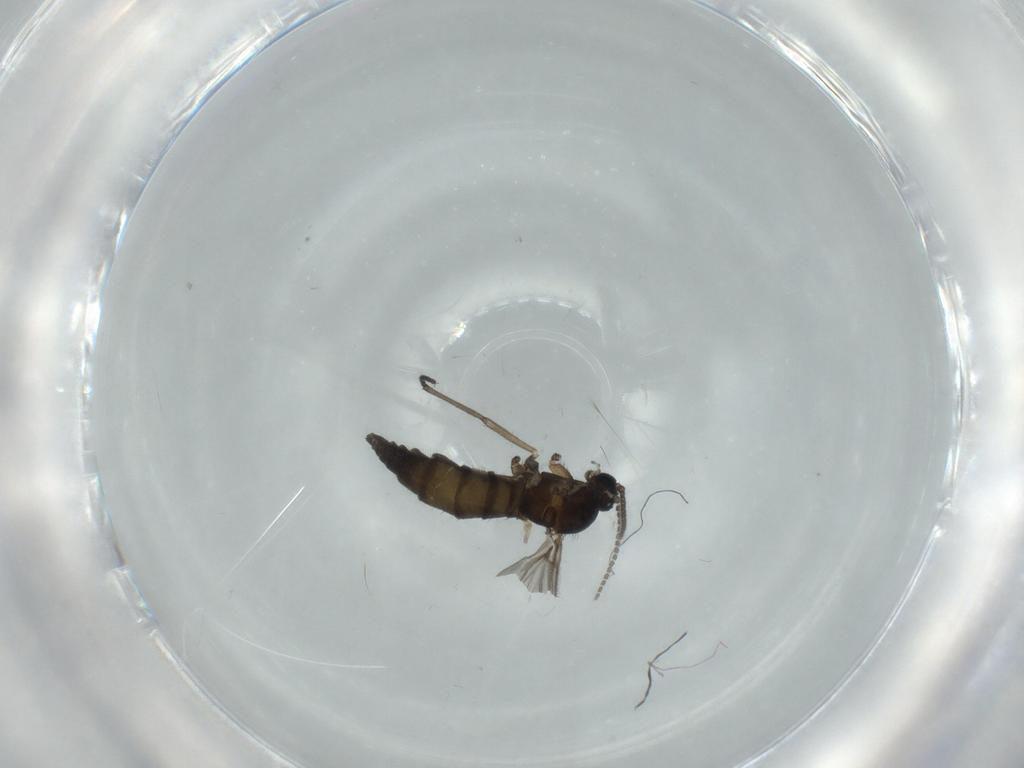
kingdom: Animalia
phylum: Arthropoda
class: Insecta
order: Diptera
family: Sciaridae
